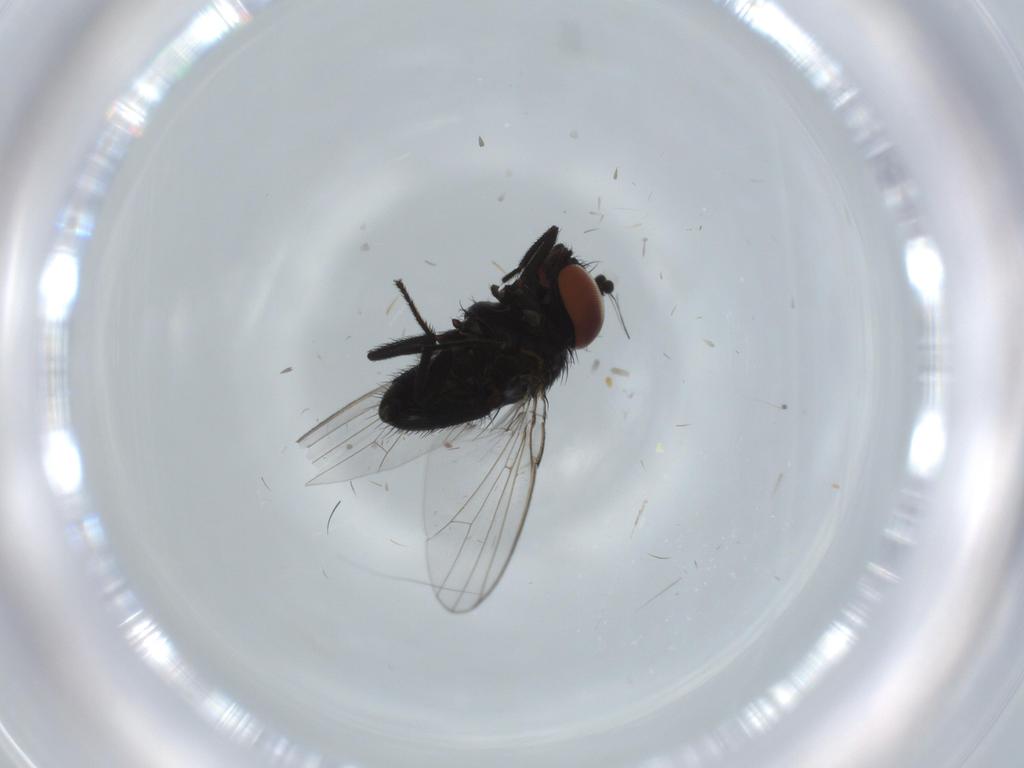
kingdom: Animalia
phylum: Arthropoda
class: Insecta
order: Diptera
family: Milichiidae
